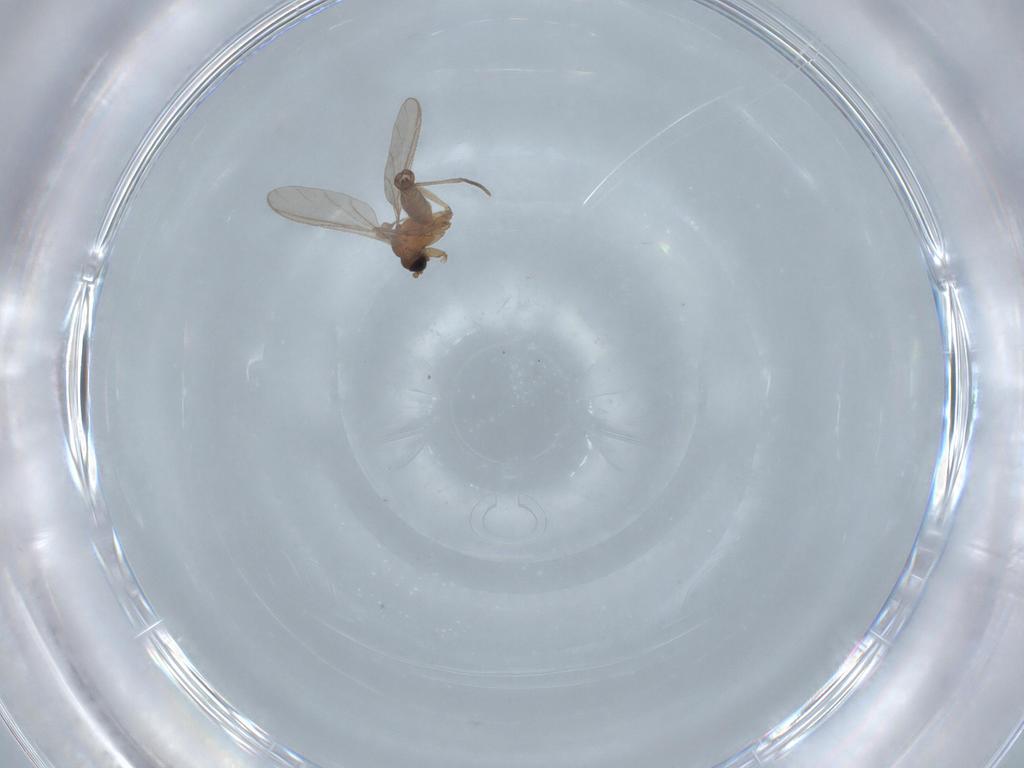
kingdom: Animalia
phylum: Arthropoda
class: Insecta
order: Diptera
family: Sciaridae
